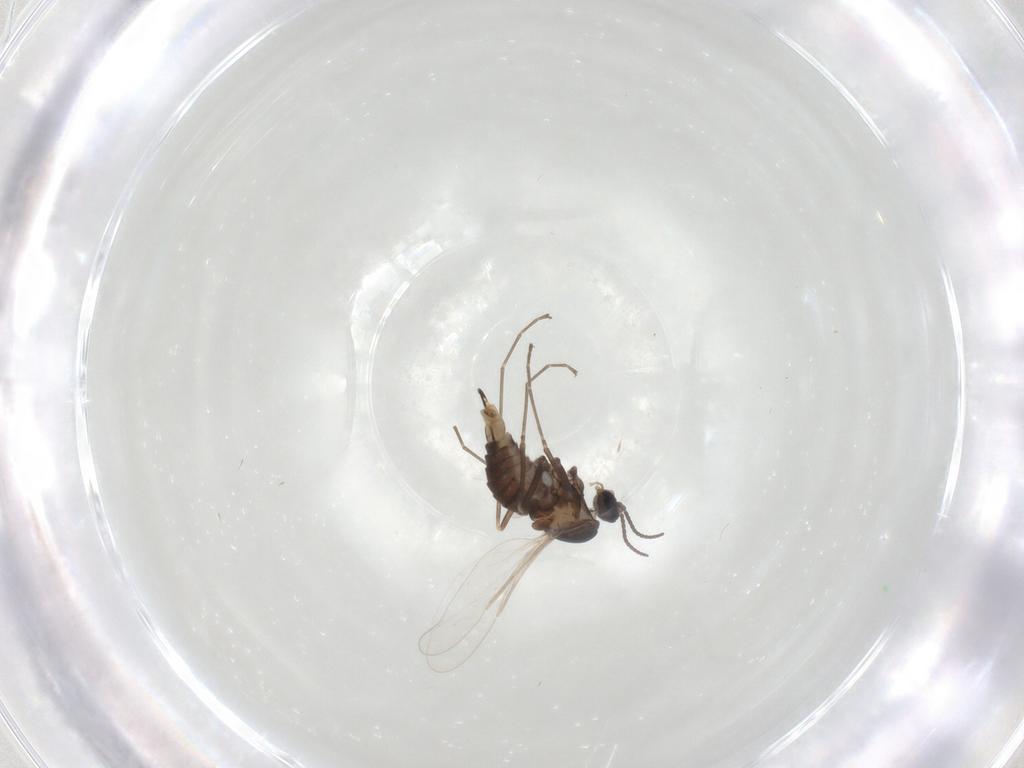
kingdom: Animalia
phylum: Arthropoda
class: Insecta
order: Diptera
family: Cecidomyiidae
